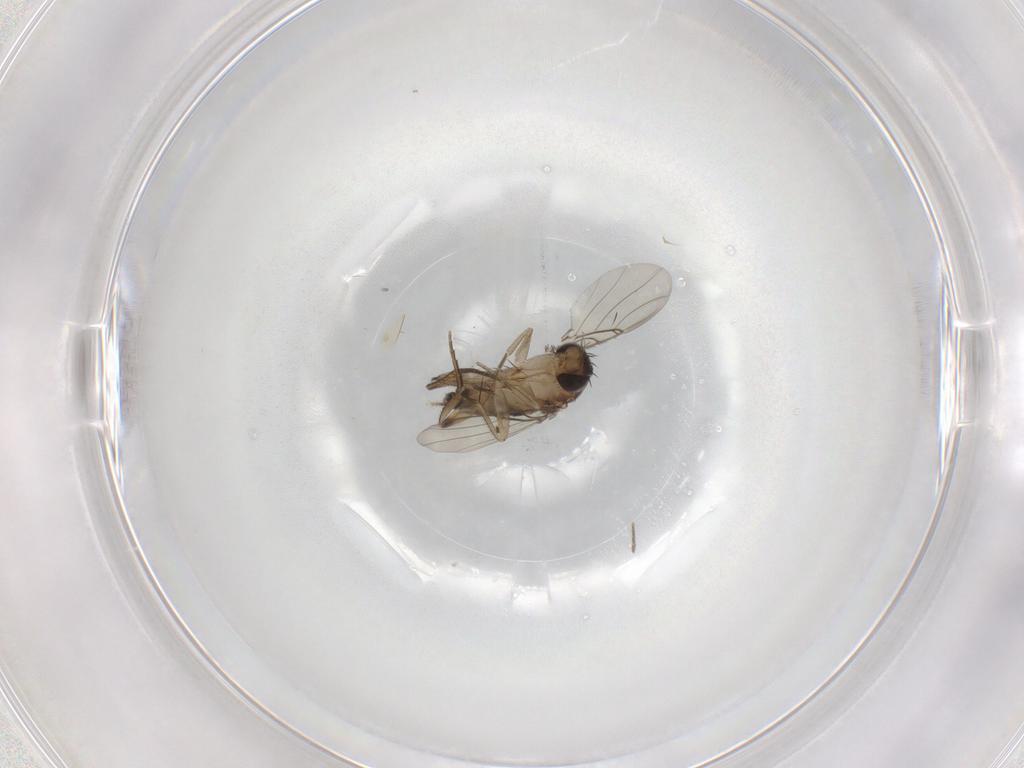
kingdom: Animalia
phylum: Arthropoda
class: Insecta
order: Diptera
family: Phoridae
